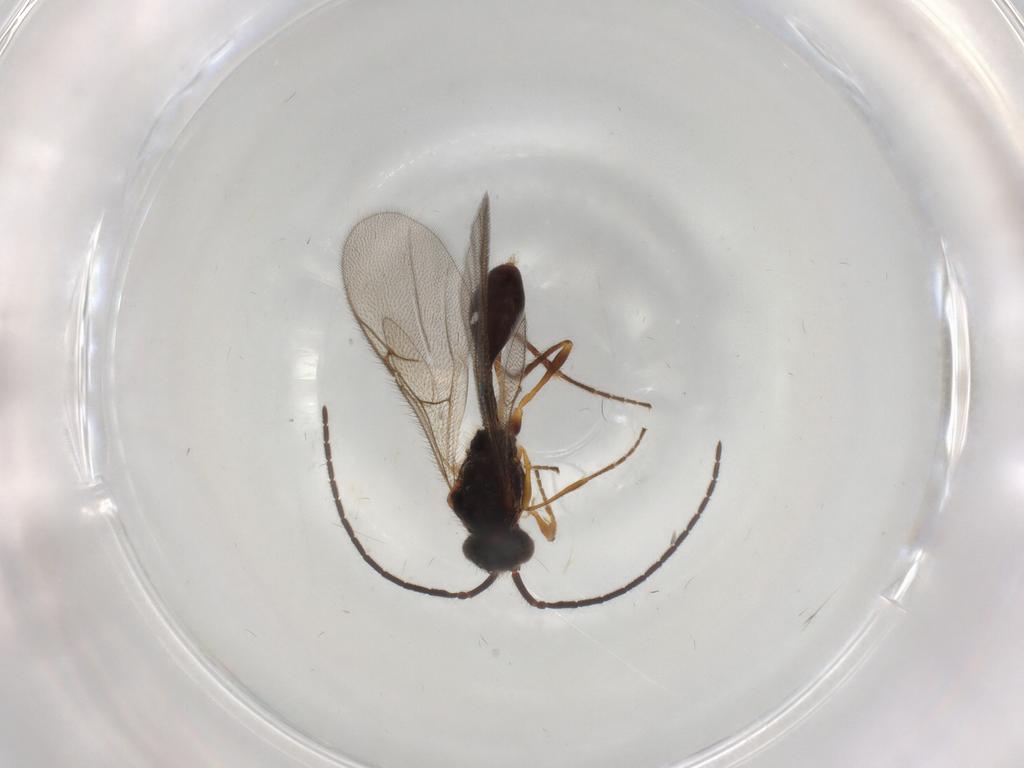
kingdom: Animalia
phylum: Arthropoda
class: Insecta
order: Hymenoptera
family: Diapriidae
